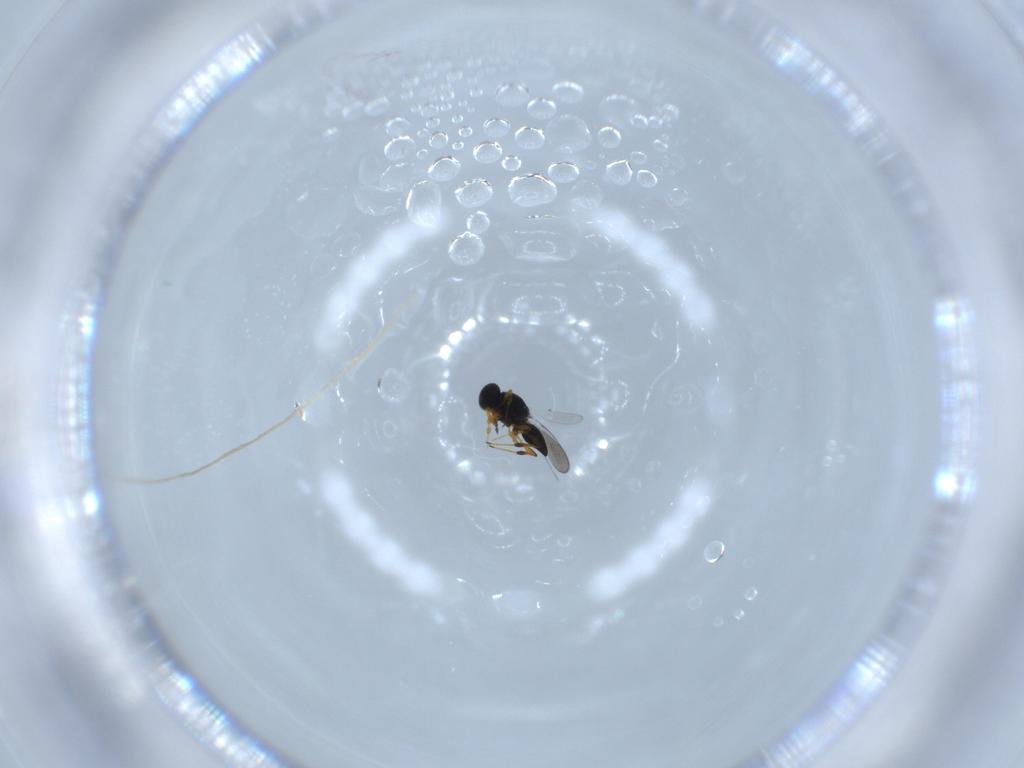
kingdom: Animalia
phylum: Arthropoda
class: Insecta
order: Hymenoptera
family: Platygastridae
